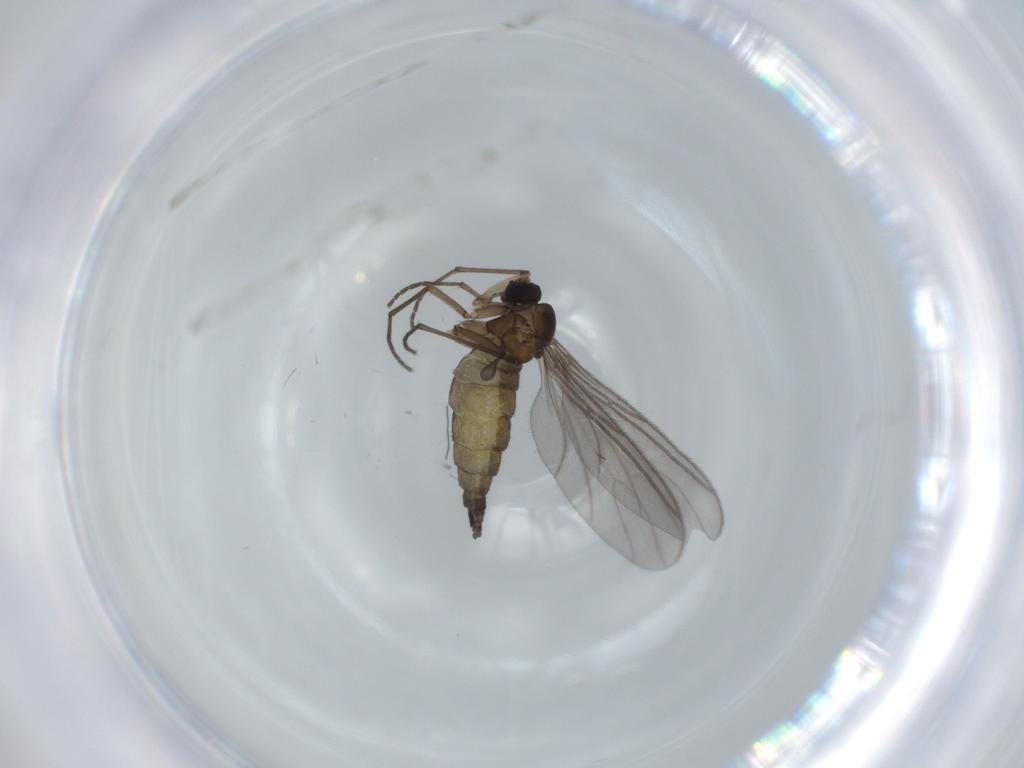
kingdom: Animalia
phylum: Arthropoda
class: Insecta
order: Diptera
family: Sciaridae
